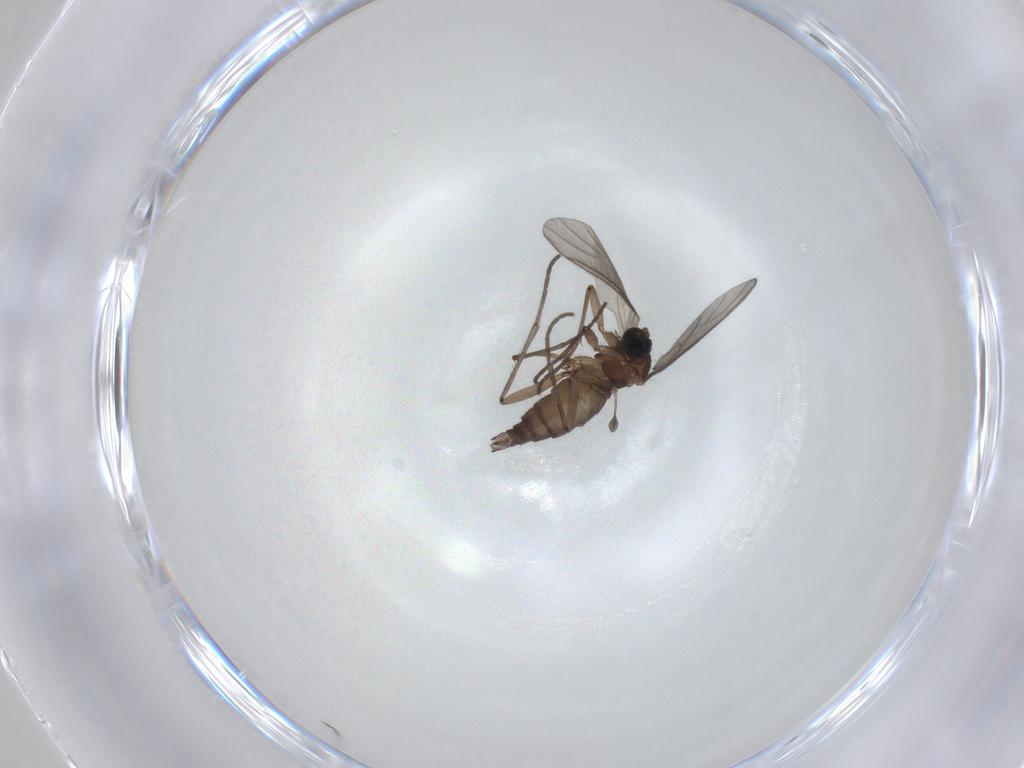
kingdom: Animalia
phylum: Arthropoda
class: Insecta
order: Diptera
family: Sciaridae
